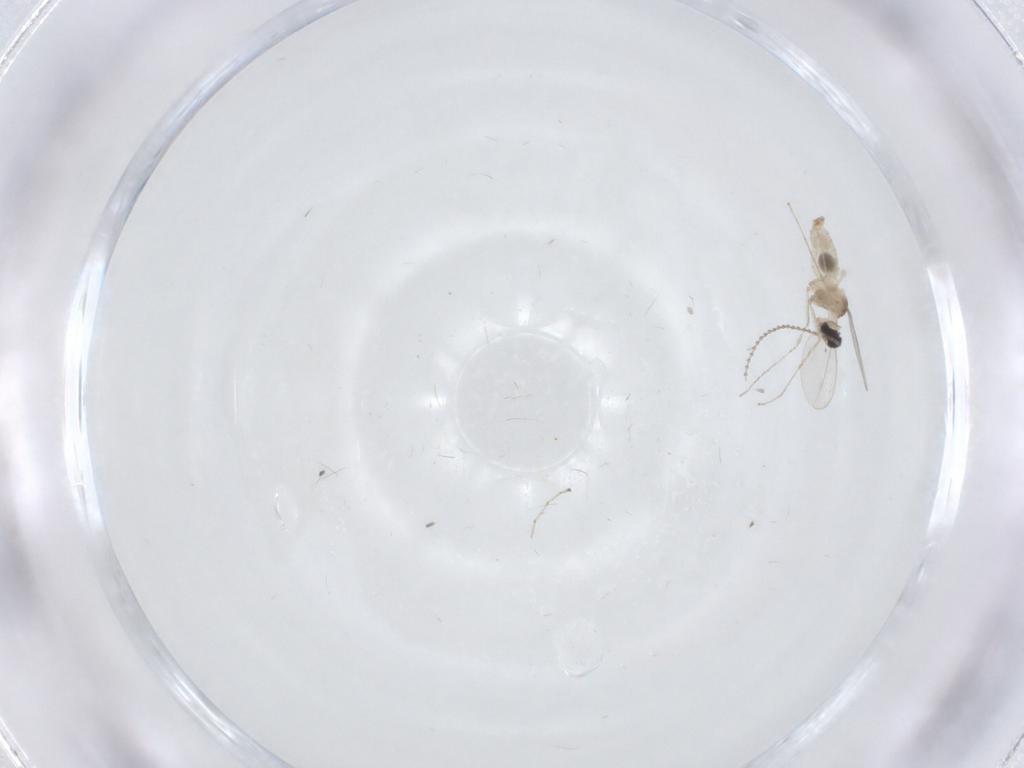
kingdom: Animalia
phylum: Arthropoda
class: Insecta
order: Diptera
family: Cecidomyiidae
